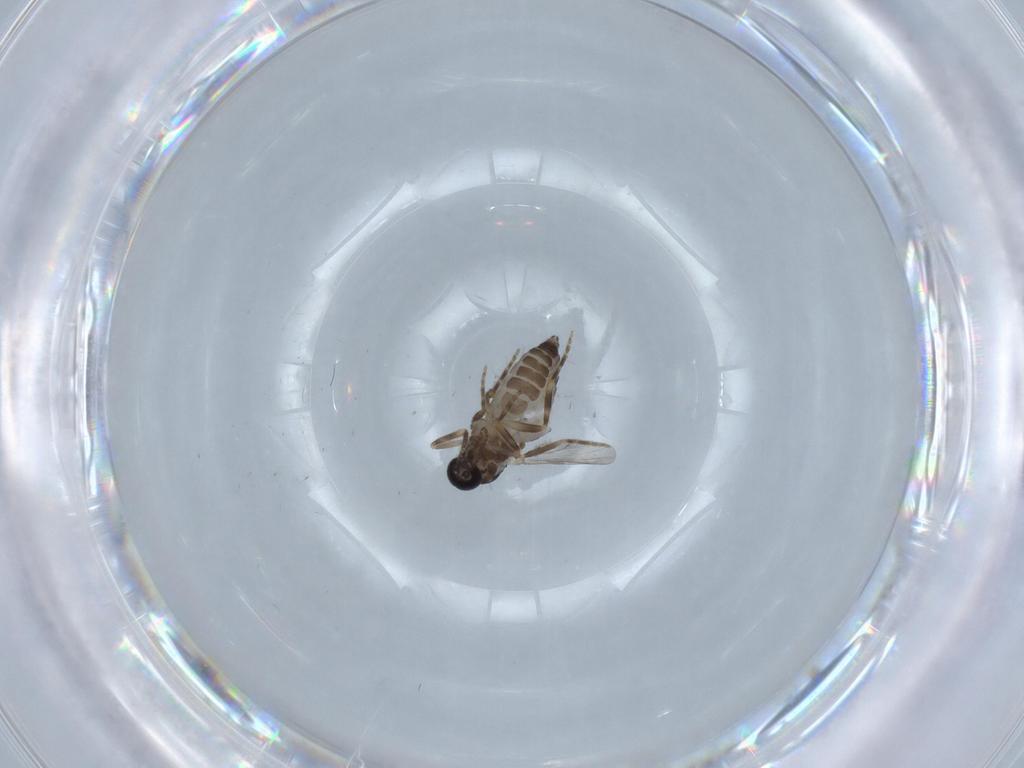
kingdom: Animalia
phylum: Arthropoda
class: Insecta
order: Diptera
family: Ceratopogonidae
